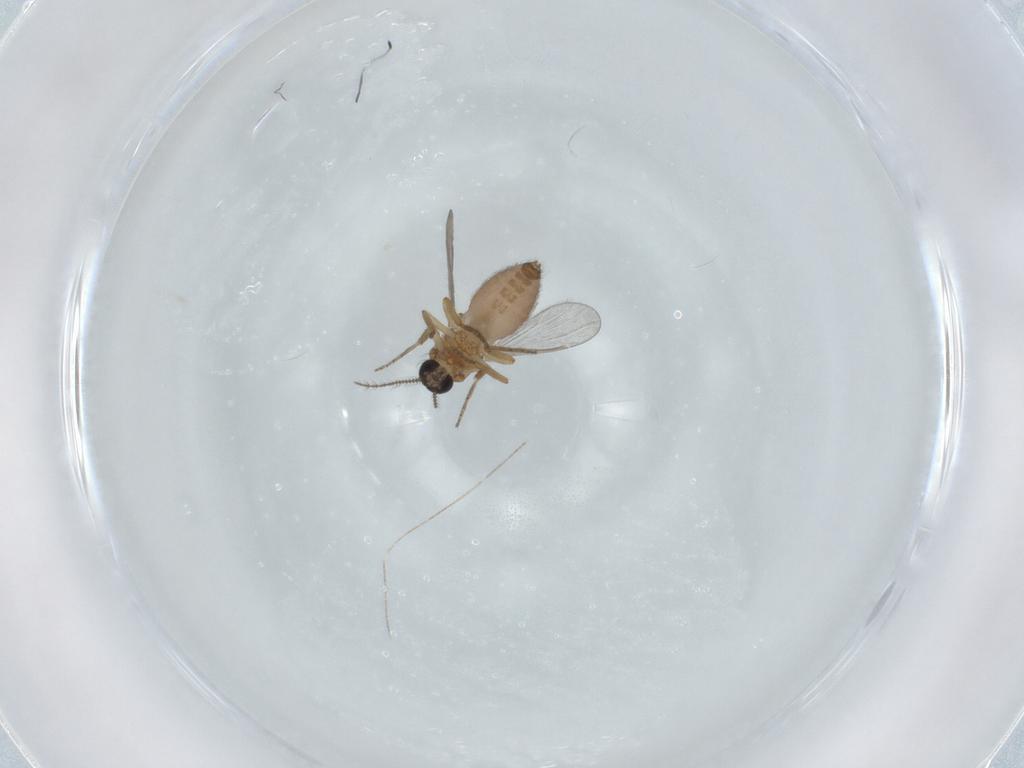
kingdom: Animalia
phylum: Arthropoda
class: Insecta
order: Diptera
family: Ceratopogonidae
